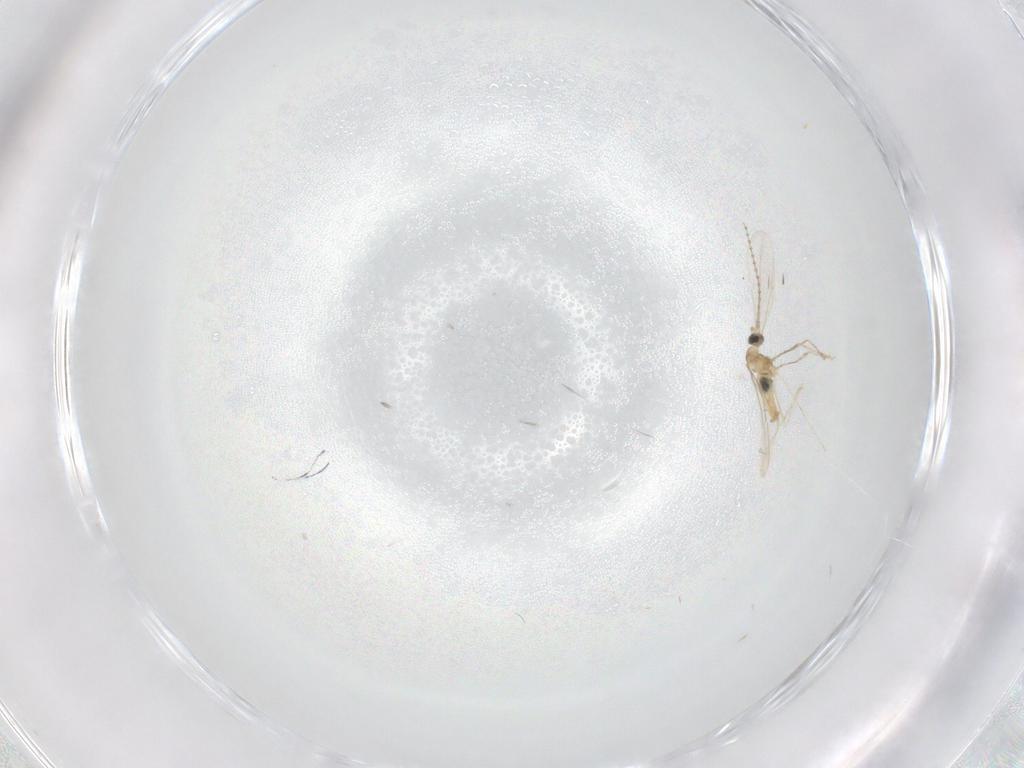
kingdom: Animalia
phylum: Arthropoda
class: Insecta
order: Diptera
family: Cecidomyiidae
